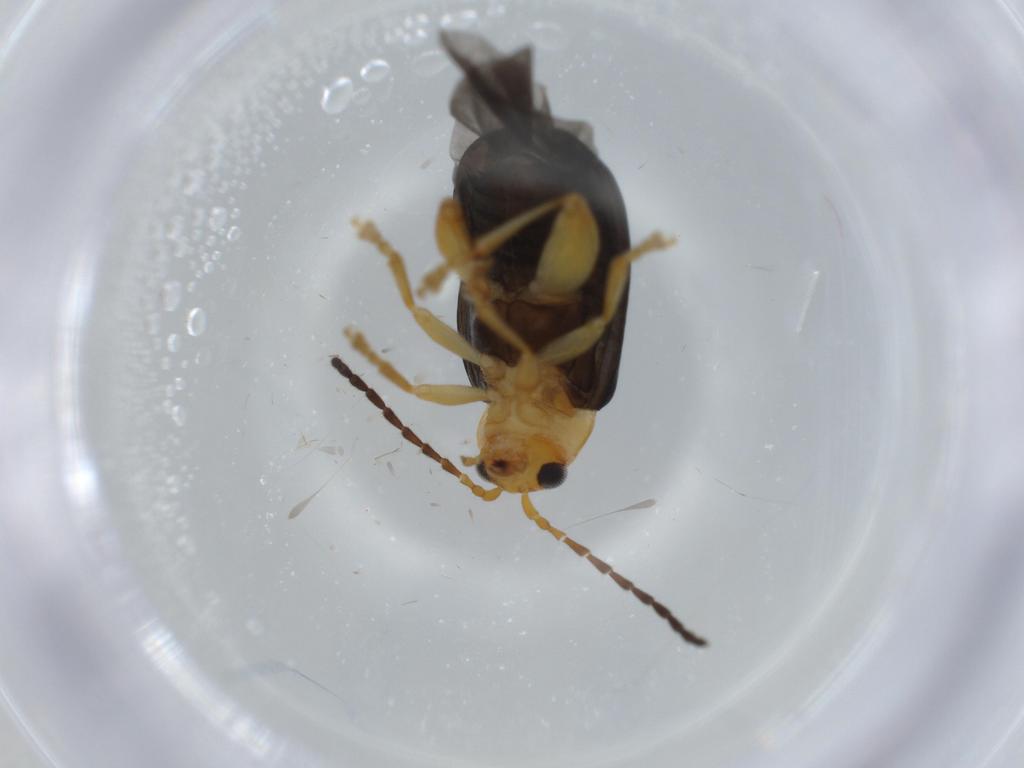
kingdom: Animalia
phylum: Arthropoda
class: Insecta
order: Coleoptera
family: Chrysomelidae
